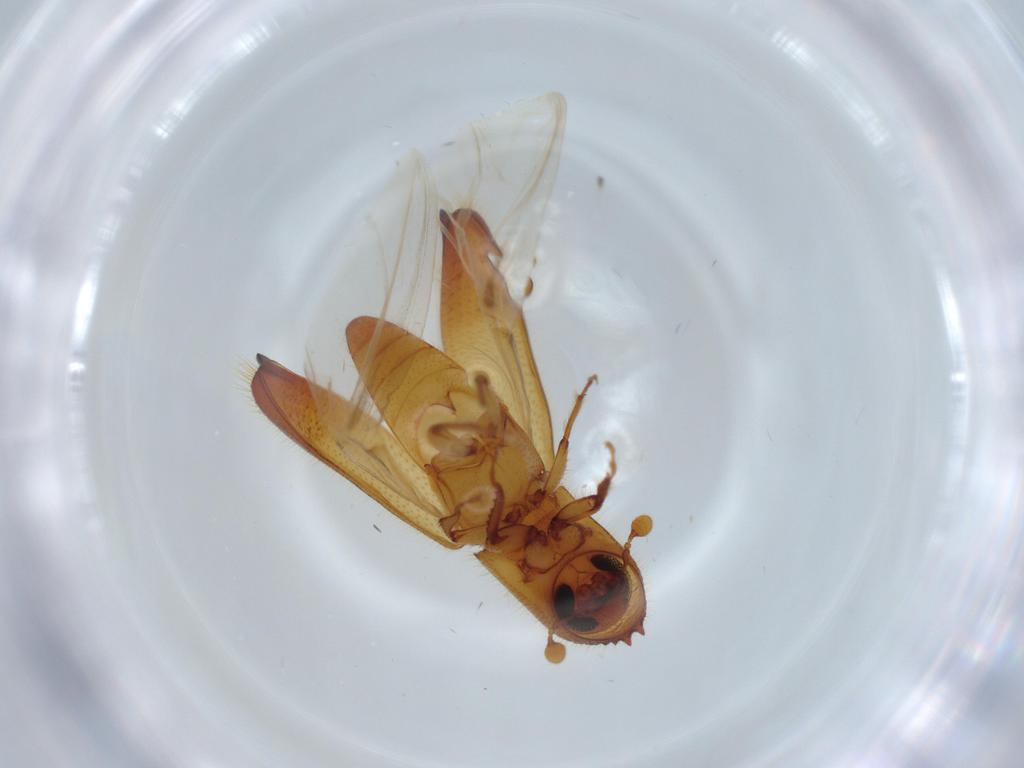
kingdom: Animalia
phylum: Arthropoda
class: Insecta
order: Coleoptera
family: Curculionidae
